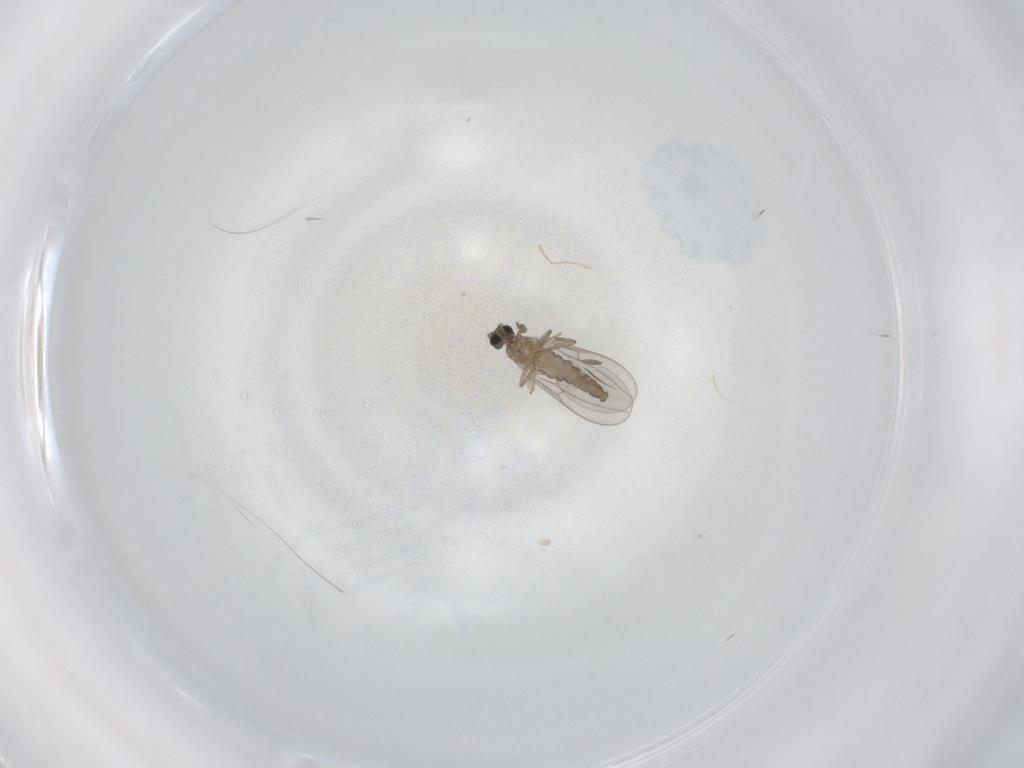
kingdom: Animalia
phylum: Arthropoda
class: Insecta
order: Diptera
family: Cecidomyiidae
